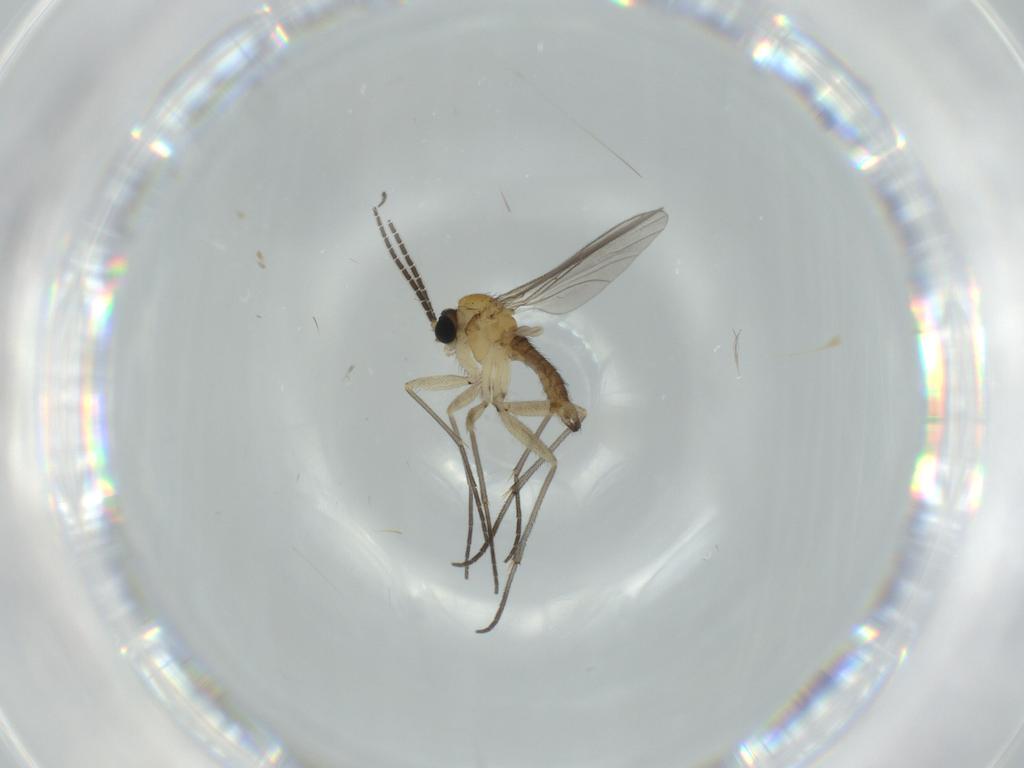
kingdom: Animalia
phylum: Arthropoda
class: Insecta
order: Diptera
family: Sciaridae
